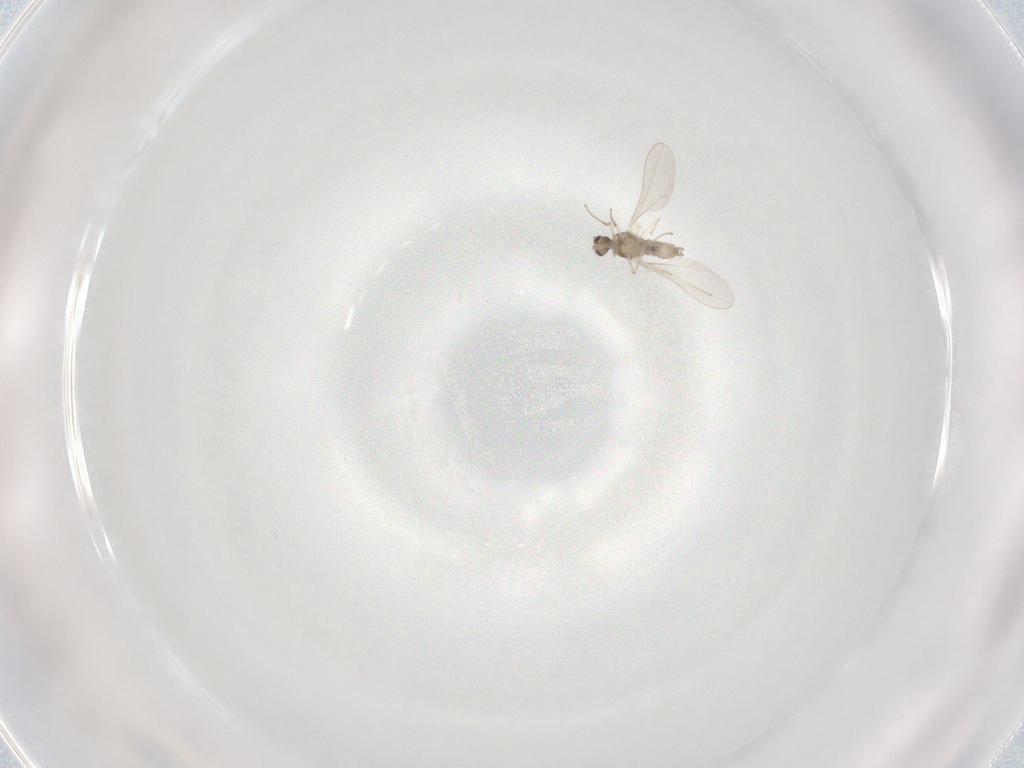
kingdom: Animalia
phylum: Arthropoda
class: Insecta
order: Diptera
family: Cecidomyiidae
